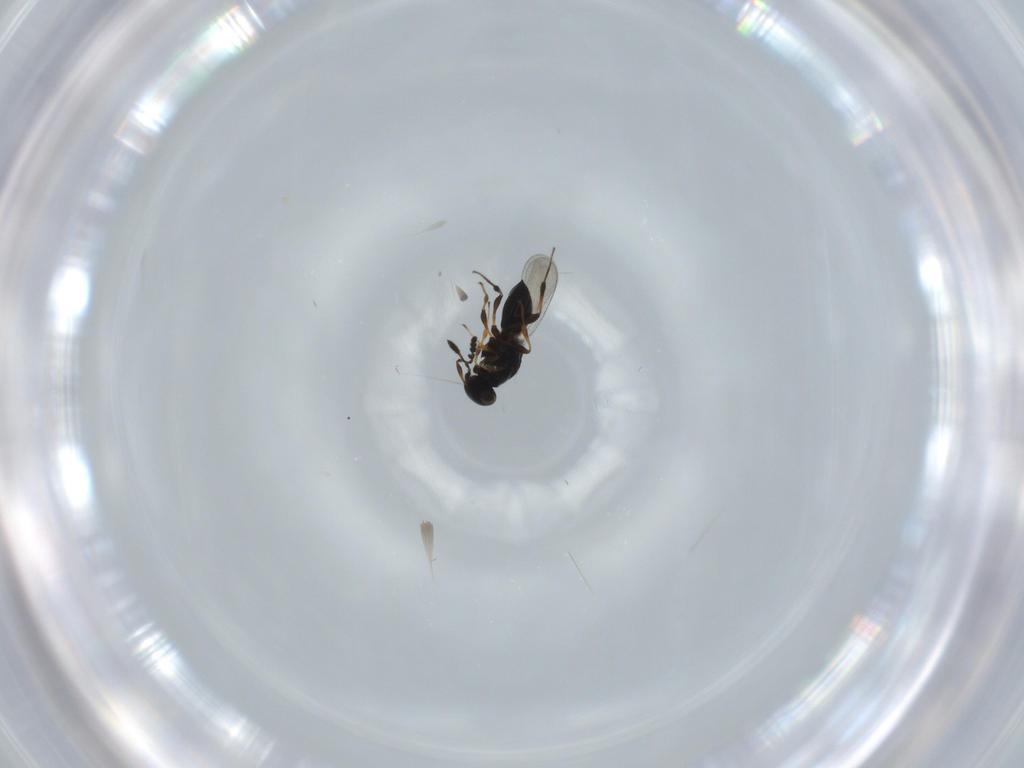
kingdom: Animalia
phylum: Arthropoda
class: Insecta
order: Hymenoptera
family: Platygastridae
